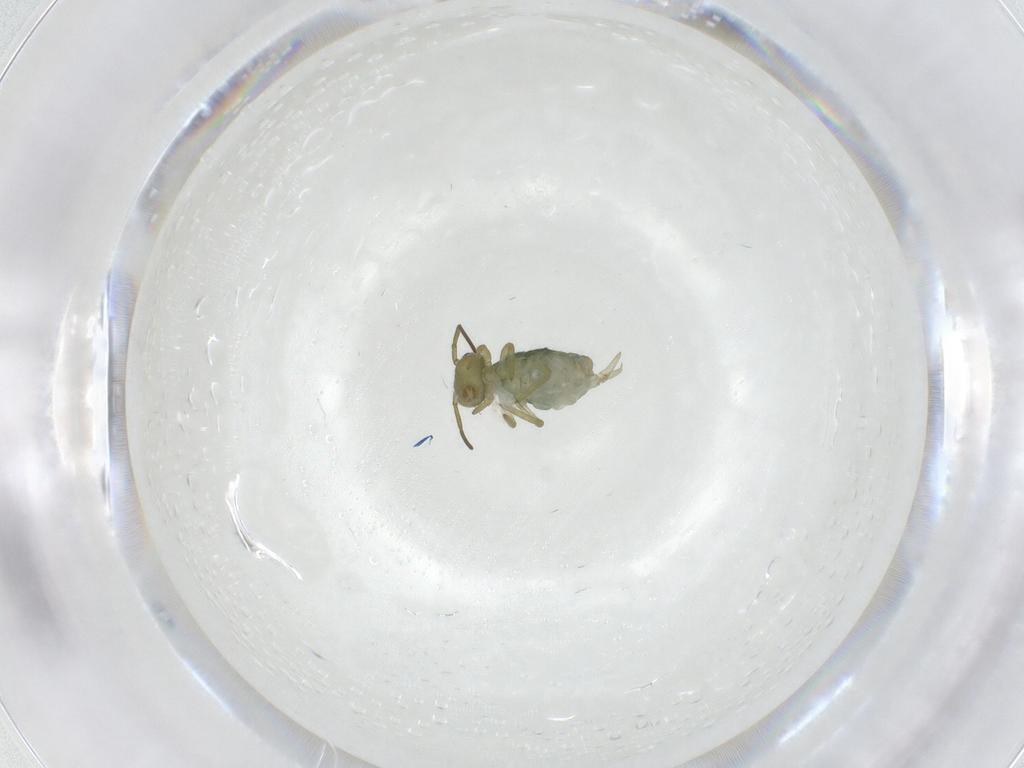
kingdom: Animalia
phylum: Arthropoda
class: Collembola
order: Symphypleona
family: Sminthuridae
